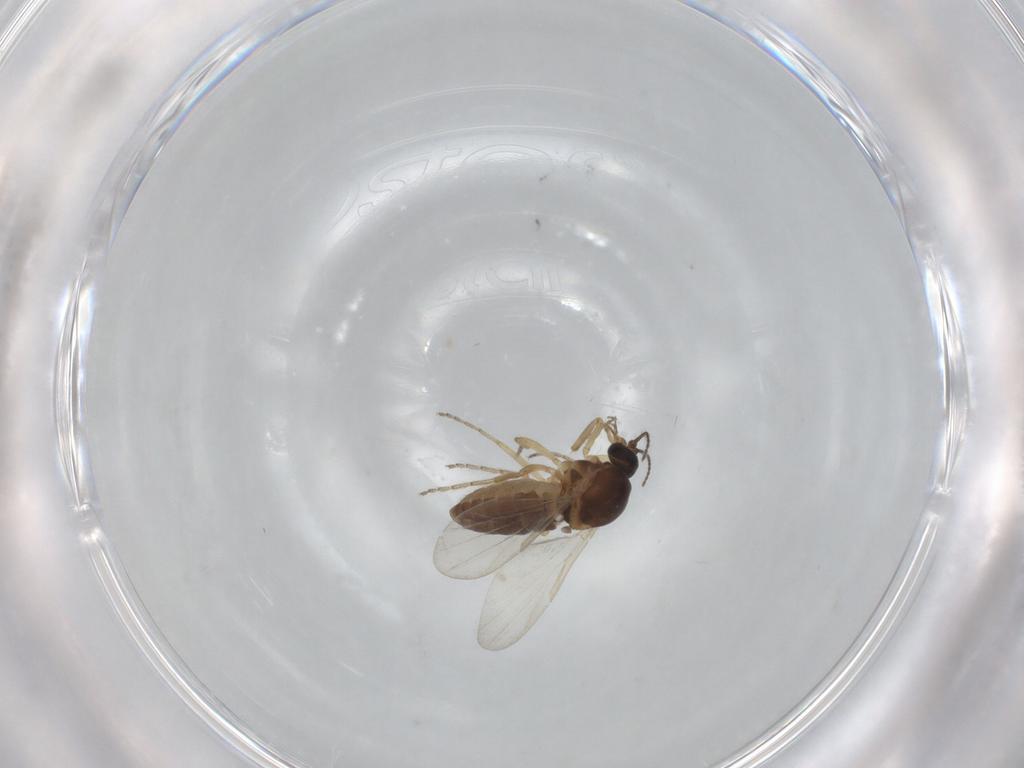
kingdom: Animalia
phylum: Arthropoda
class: Insecta
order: Diptera
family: Ceratopogonidae
